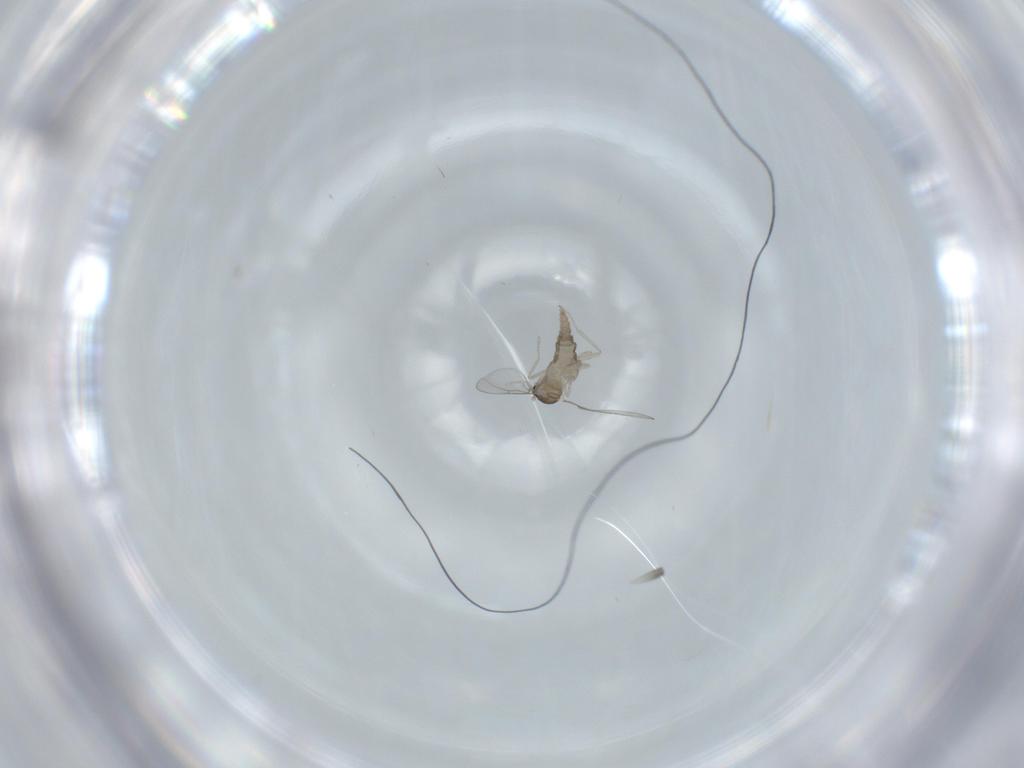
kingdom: Animalia
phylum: Arthropoda
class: Insecta
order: Diptera
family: Cecidomyiidae
